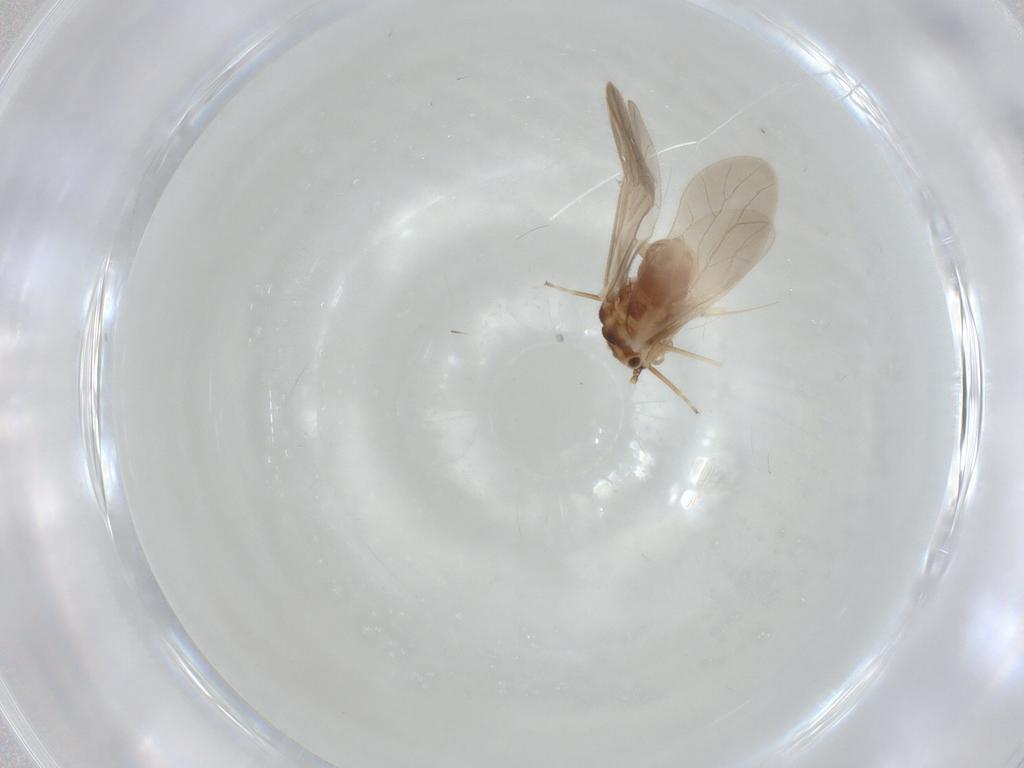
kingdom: Animalia
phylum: Arthropoda
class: Insecta
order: Psocodea
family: Caeciliusidae
